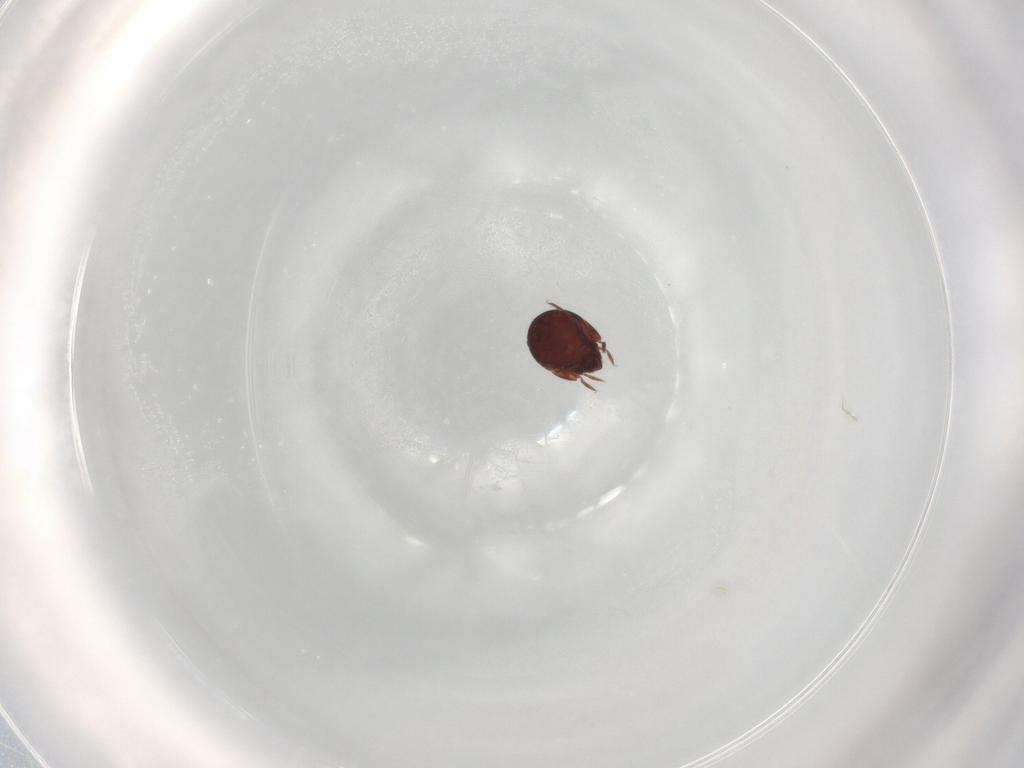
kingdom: Animalia
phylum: Arthropoda
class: Arachnida
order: Sarcoptiformes
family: Humerobatidae
